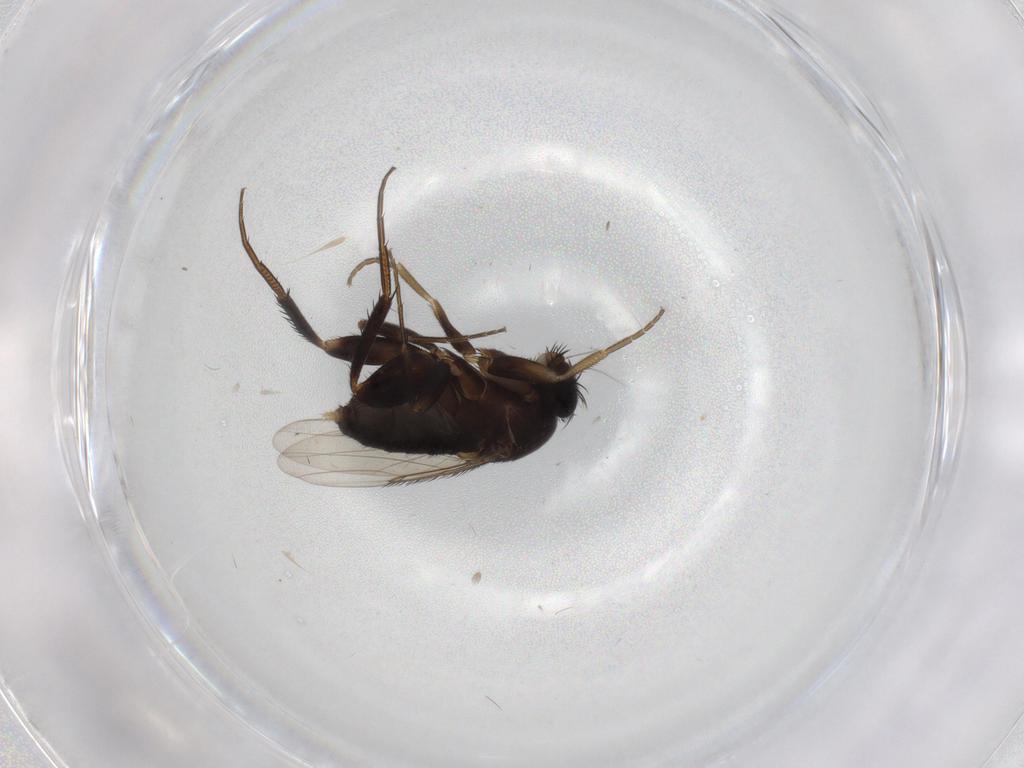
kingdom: Animalia
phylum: Arthropoda
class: Insecta
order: Diptera
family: Phoridae
